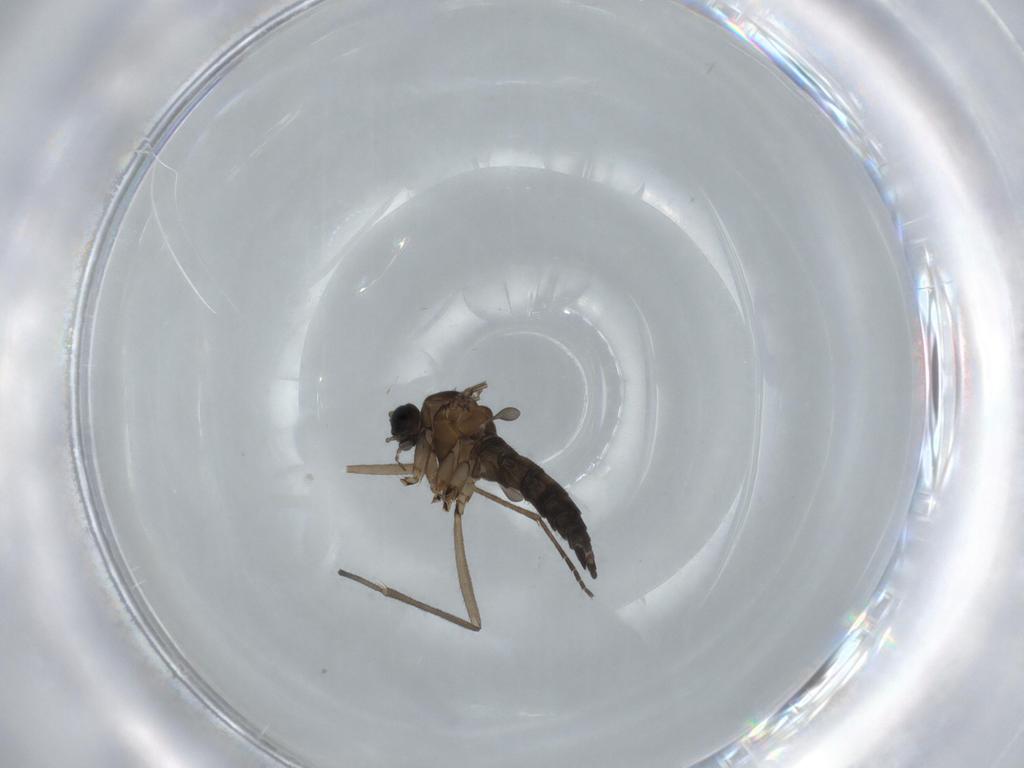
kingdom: Animalia
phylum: Arthropoda
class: Insecta
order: Diptera
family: Sciaridae
